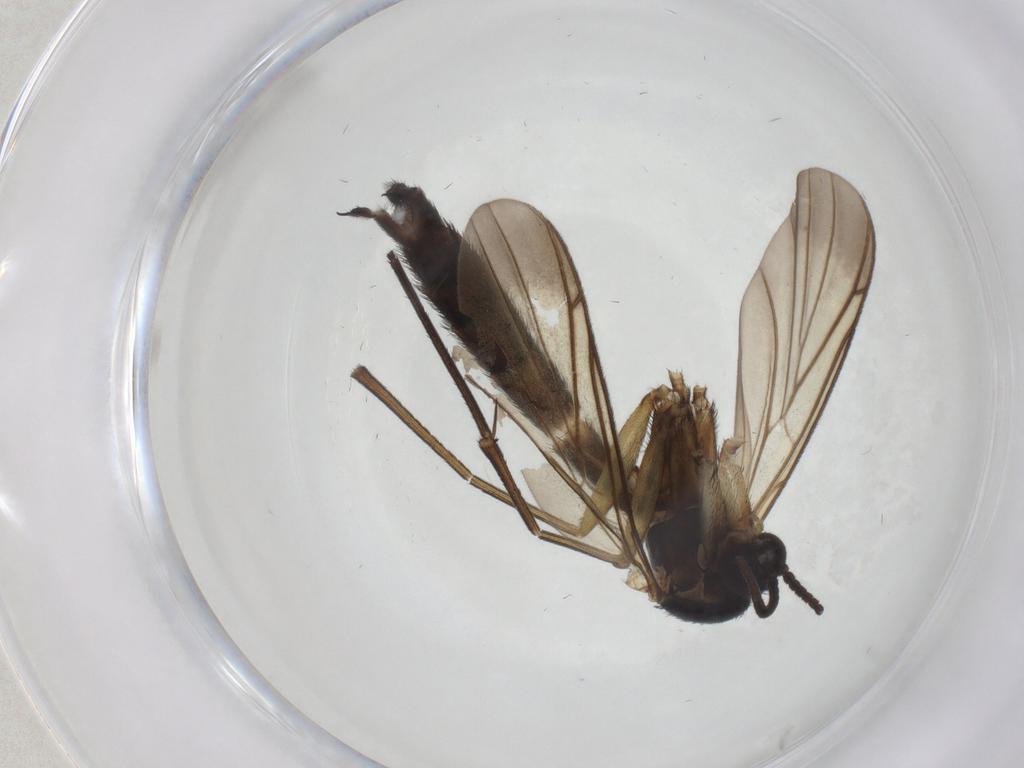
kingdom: Animalia
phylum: Arthropoda
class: Insecta
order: Diptera
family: Keroplatidae
